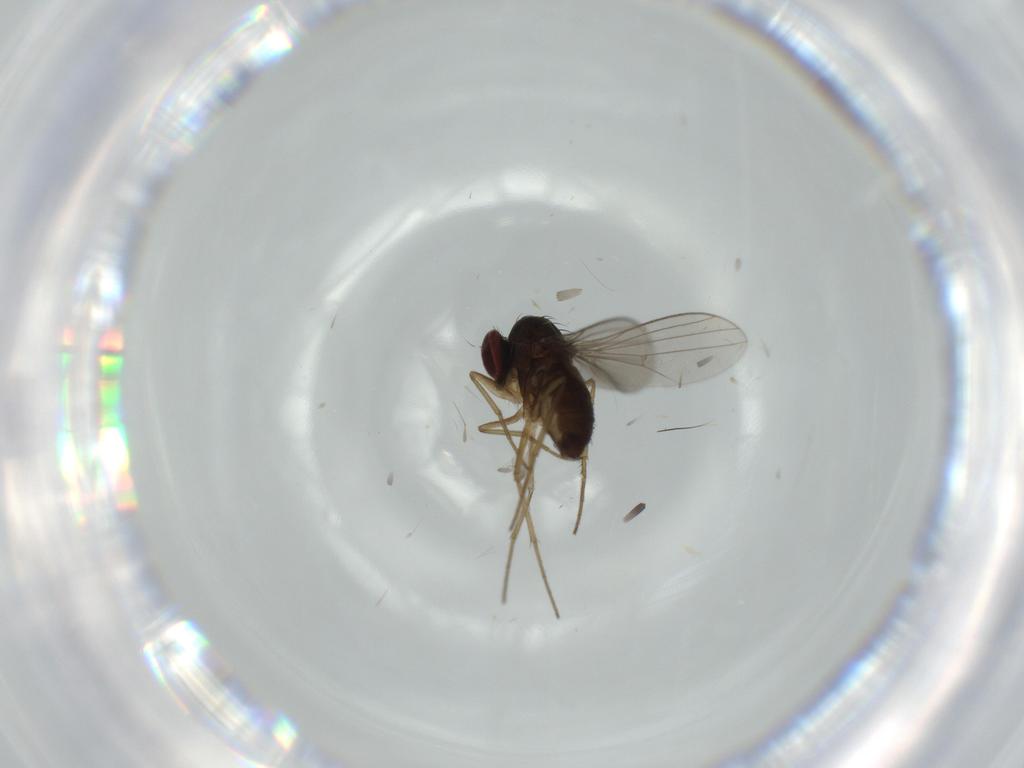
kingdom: Animalia
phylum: Arthropoda
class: Insecta
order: Diptera
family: Dolichopodidae
